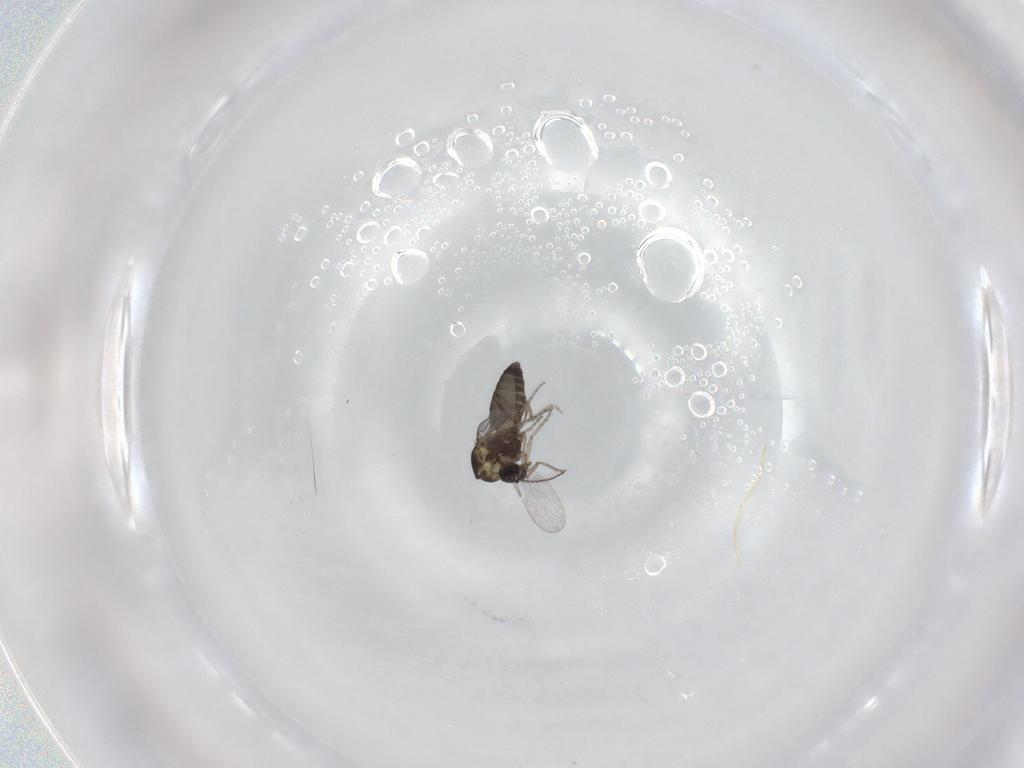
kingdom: Animalia
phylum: Arthropoda
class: Insecta
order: Diptera
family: Ceratopogonidae
